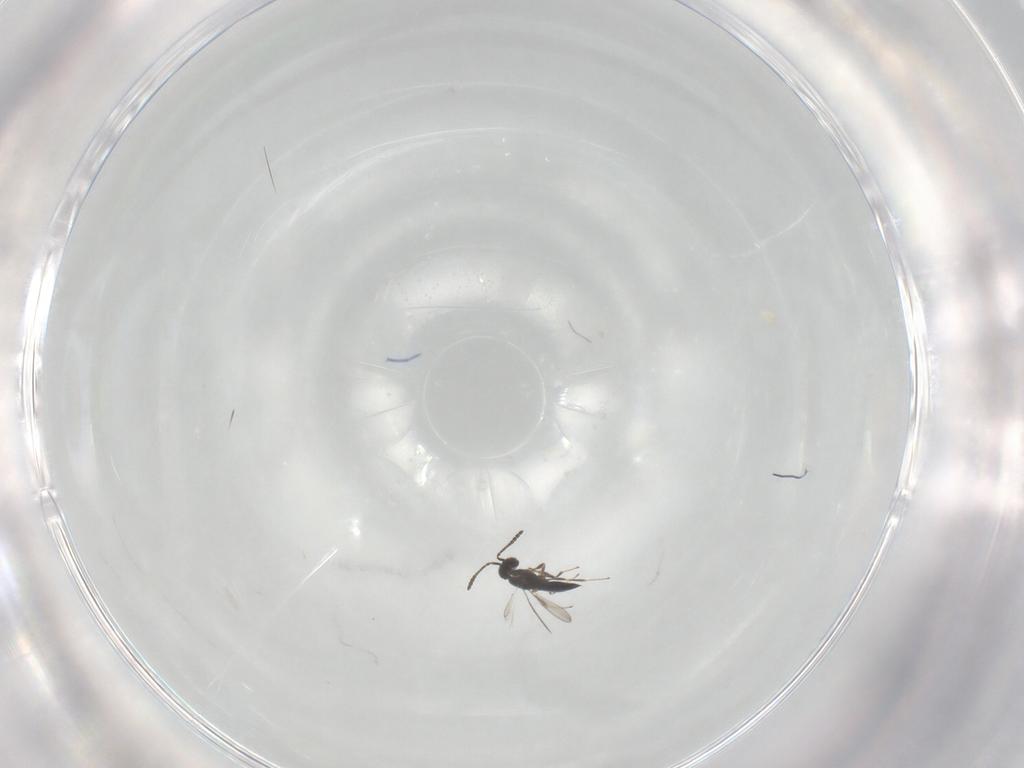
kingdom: Animalia
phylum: Arthropoda
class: Insecta
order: Hymenoptera
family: Scelionidae
